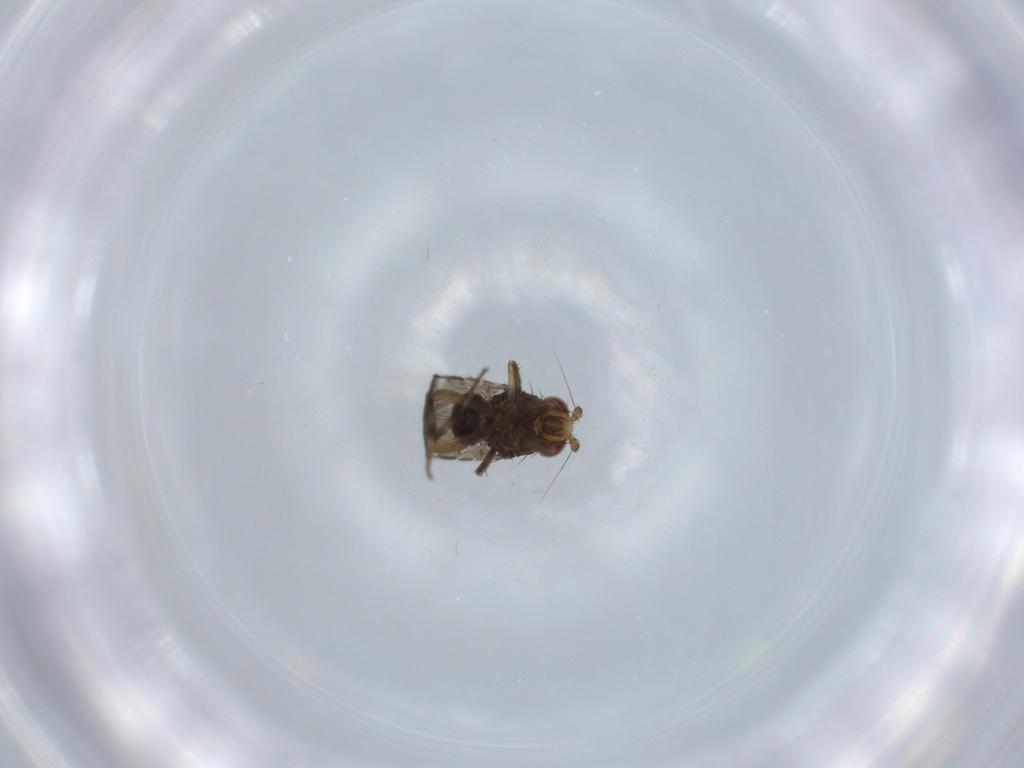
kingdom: Animalia
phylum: Arthropoda
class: Insecta
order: Diptera
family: Sphaeroceridae
